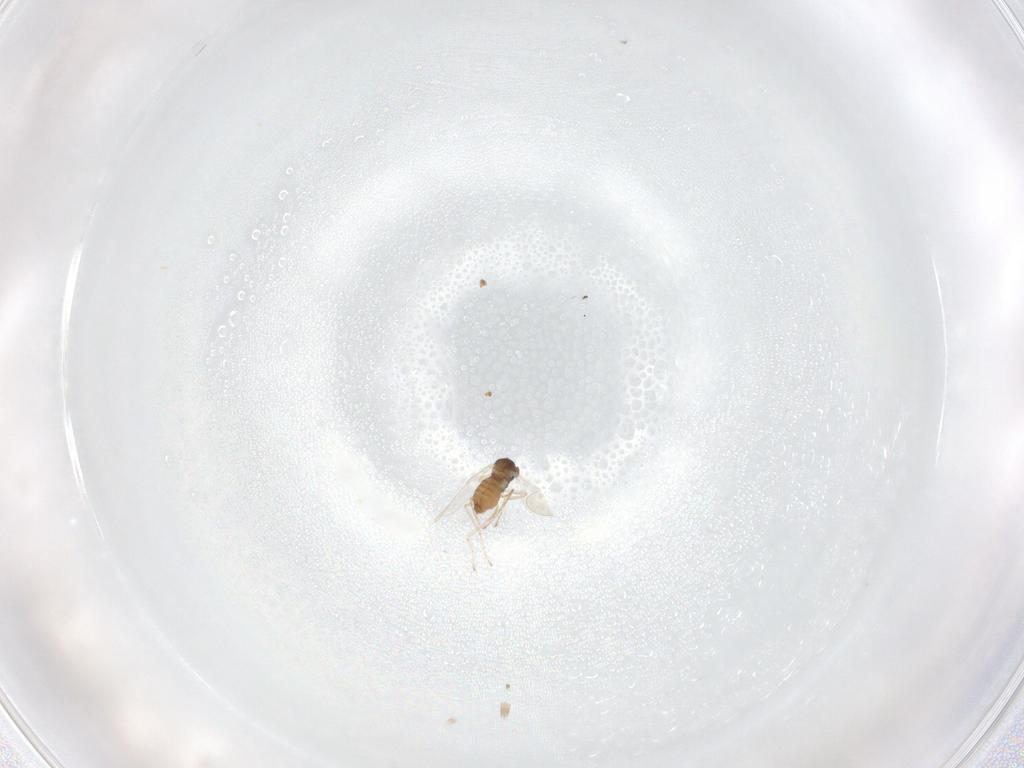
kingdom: Animalia
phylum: Arthropoda
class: Insecta
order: Diptera
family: Cecidomyiidae
